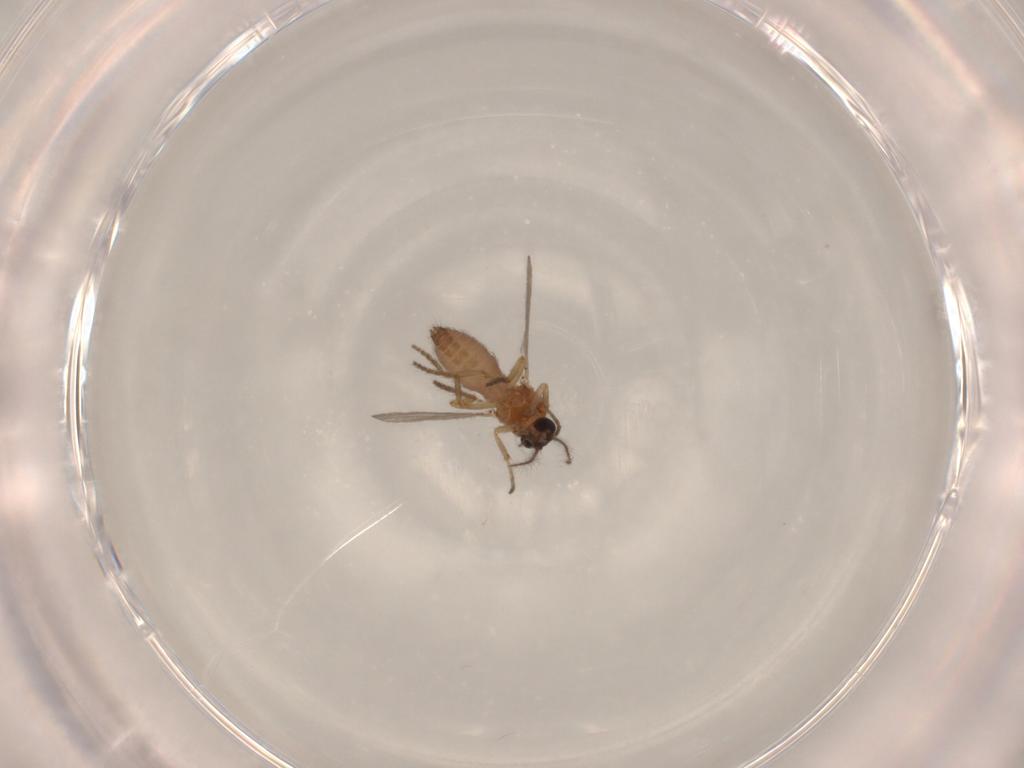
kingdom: Animalia
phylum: Arthropoda
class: Insecta
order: Diptera
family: Ceratopogonidae
